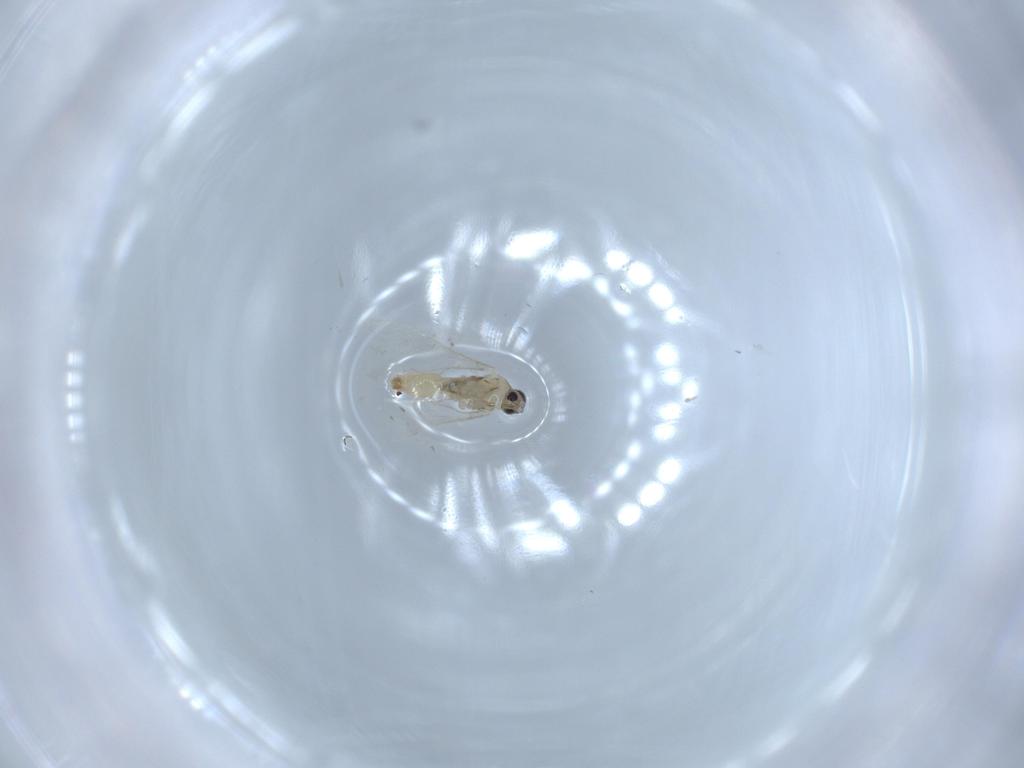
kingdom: Animalia
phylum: Arthropoda
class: Insecta
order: Diptera
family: Cecidomyiidae
